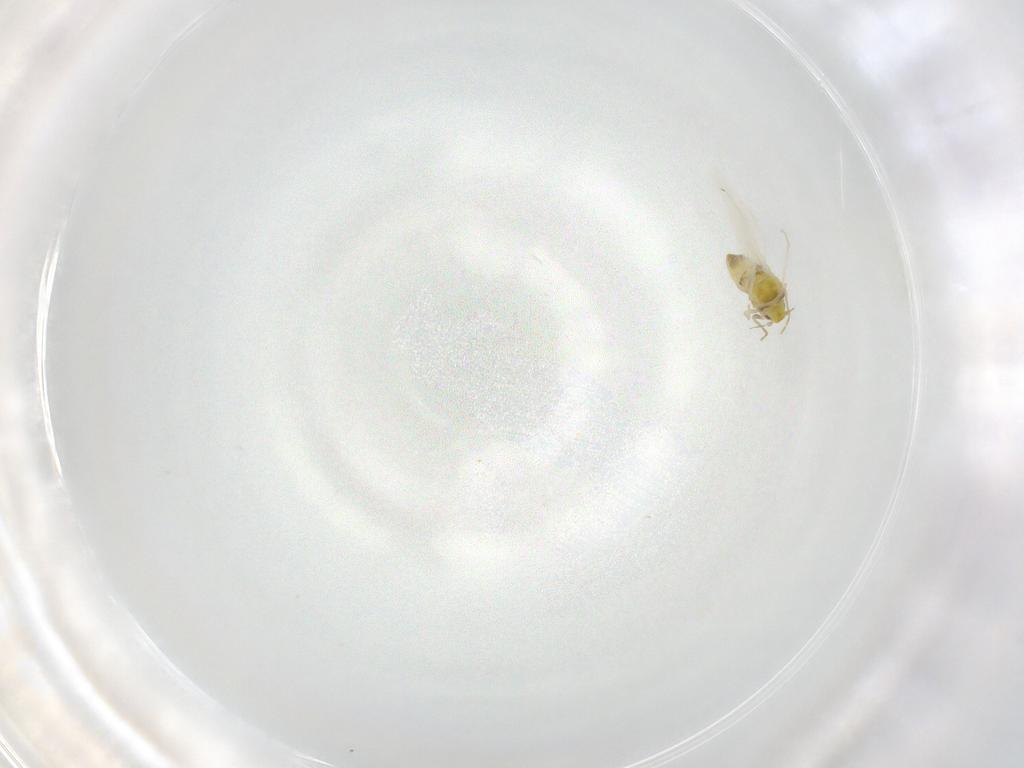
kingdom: Animalia
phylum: Arthropoda
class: Insecta
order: Hemiptera
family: Aleyrodidae
